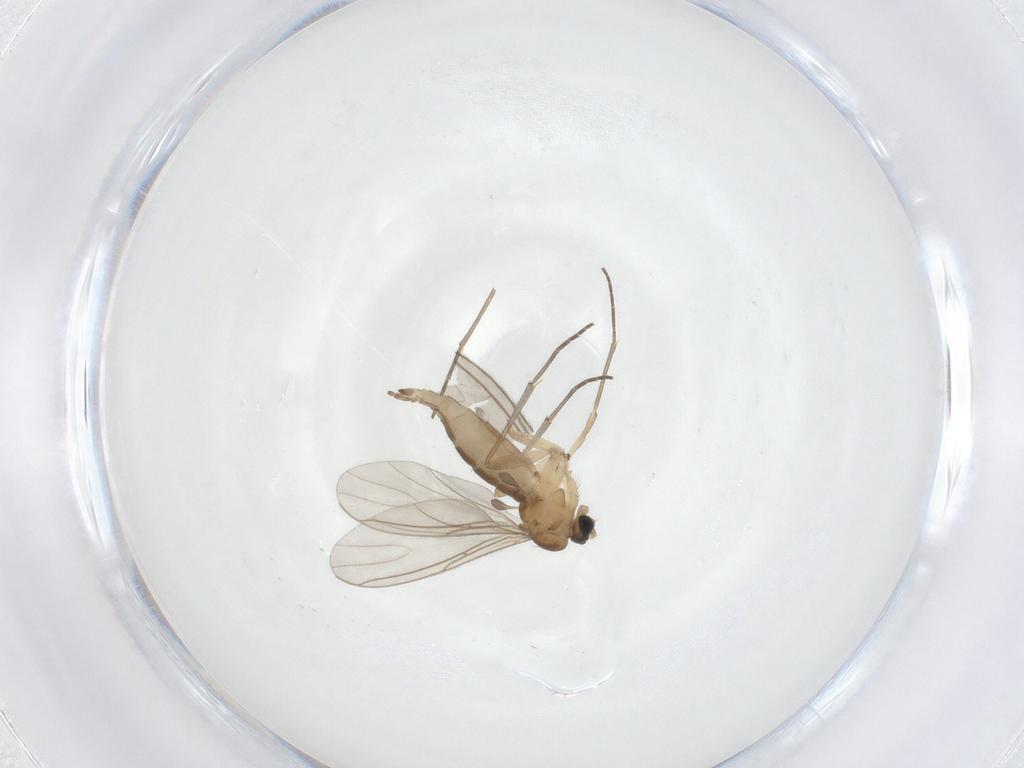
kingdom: Animalia
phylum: Arthropoda
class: Insecta
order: Diptera
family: Sciaridae
